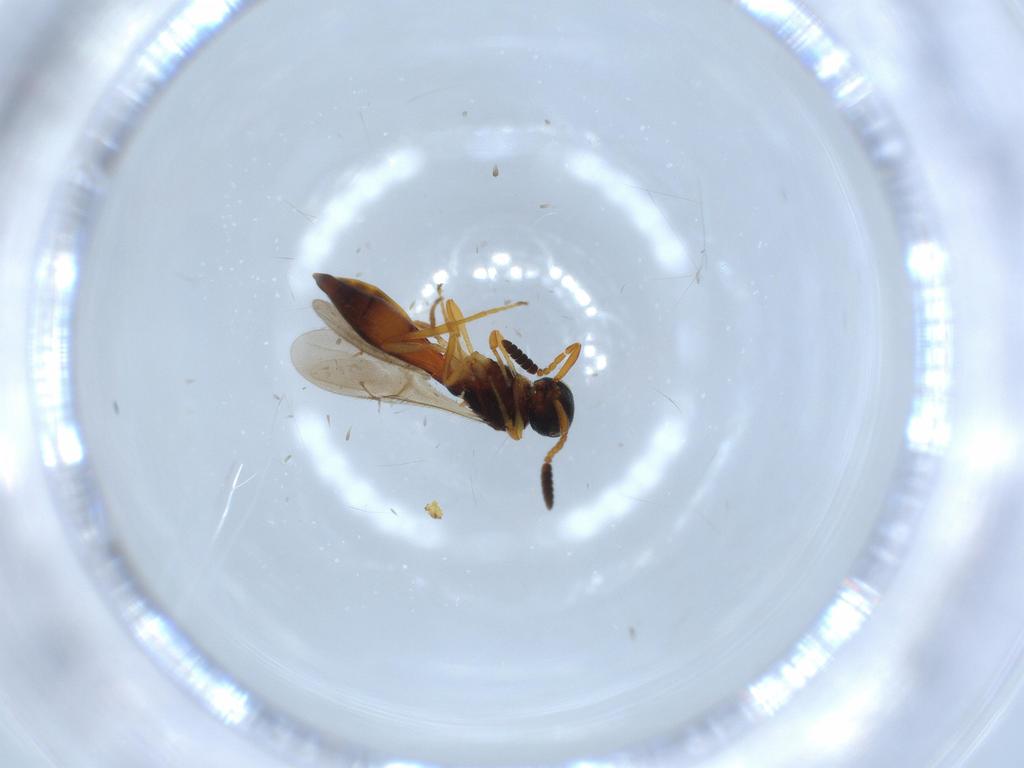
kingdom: Animalia
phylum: Arthropoda
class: Insecta
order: Hymenoptera
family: Scelionidae
